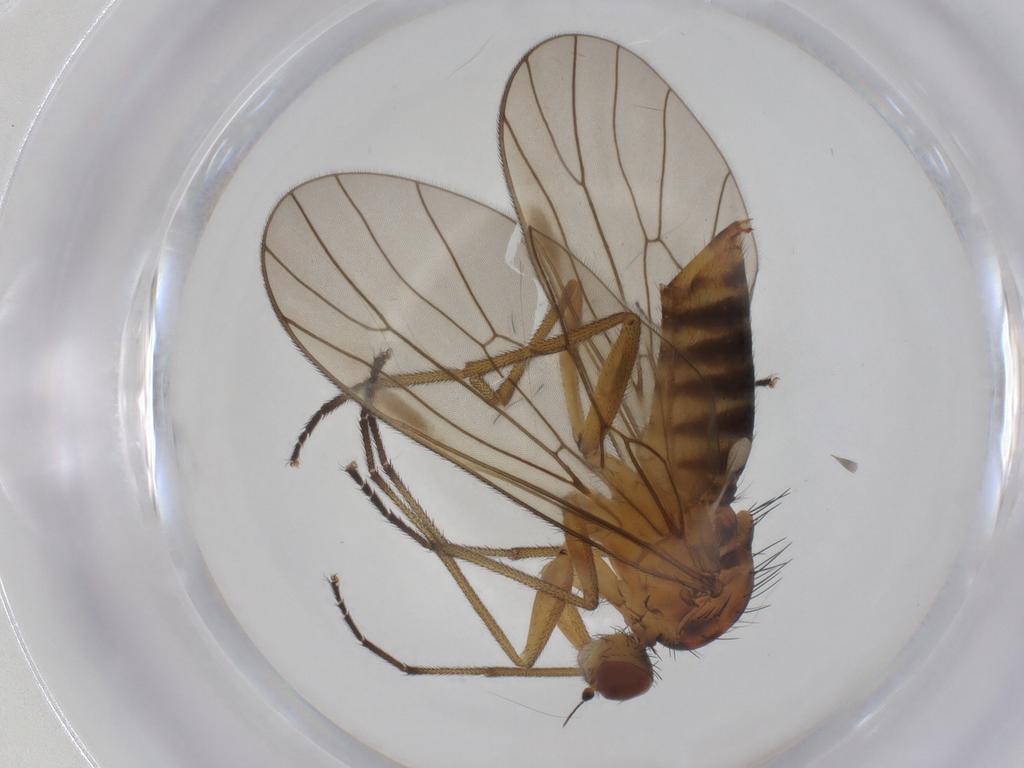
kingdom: Animalia
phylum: Arthropoda
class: Insecta
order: Diptera
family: Brachystomatidae
